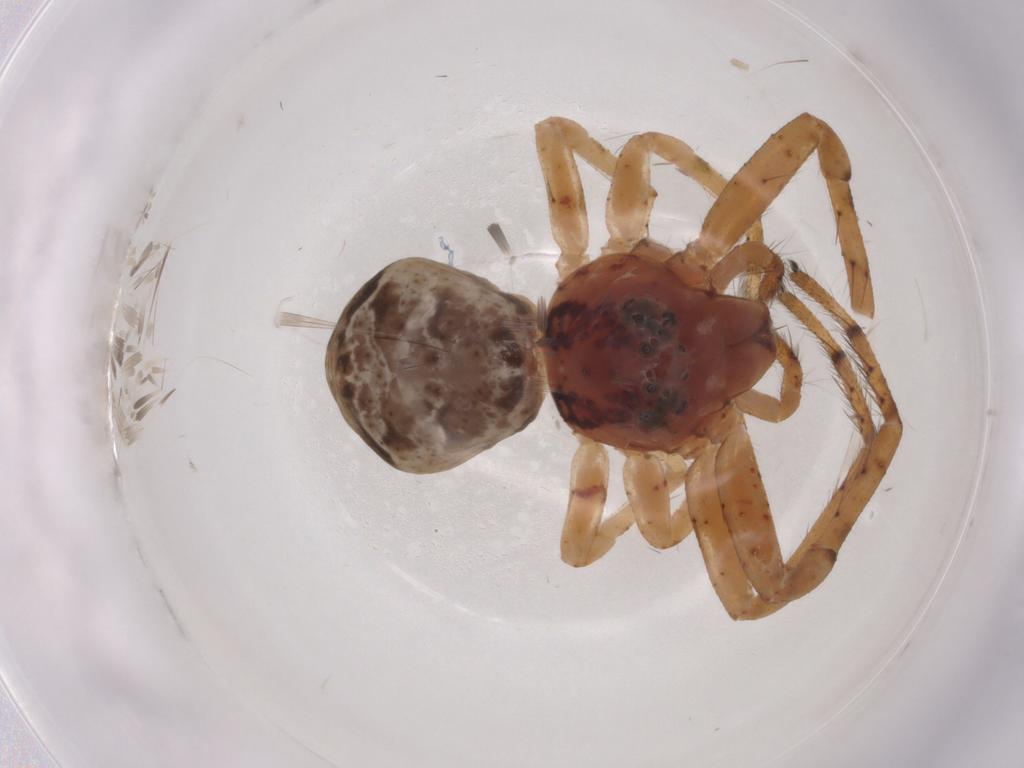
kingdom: Animalia
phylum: Arthropoda
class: Arachnida
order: Araneae
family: Thomisidae
